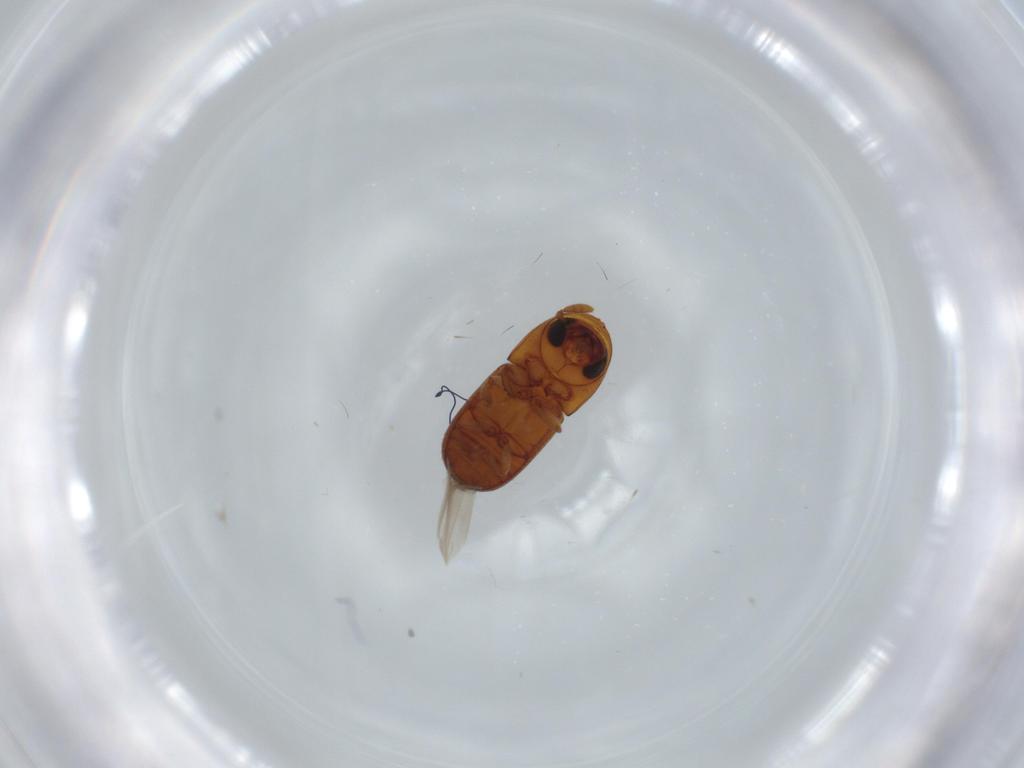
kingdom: Animalia
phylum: Arthropoda
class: Insecta
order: Coleoptera
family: Curculionidae
